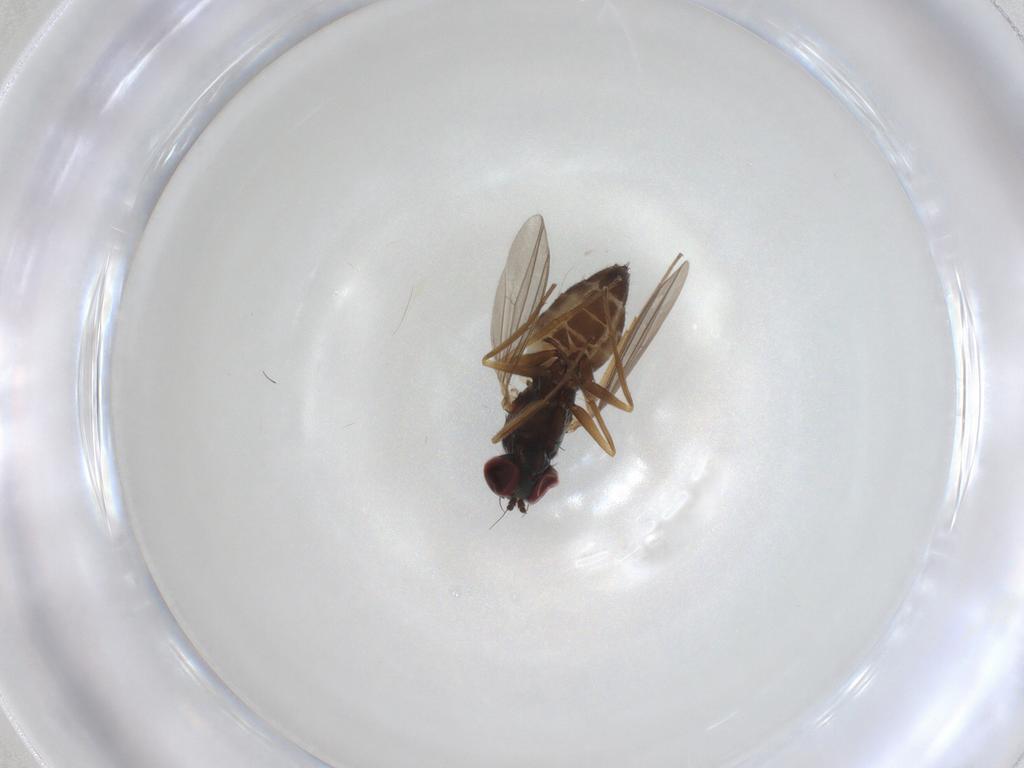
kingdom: Animalia
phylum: Arthropoda
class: Insecta
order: Diptera
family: Dolichopodidae
